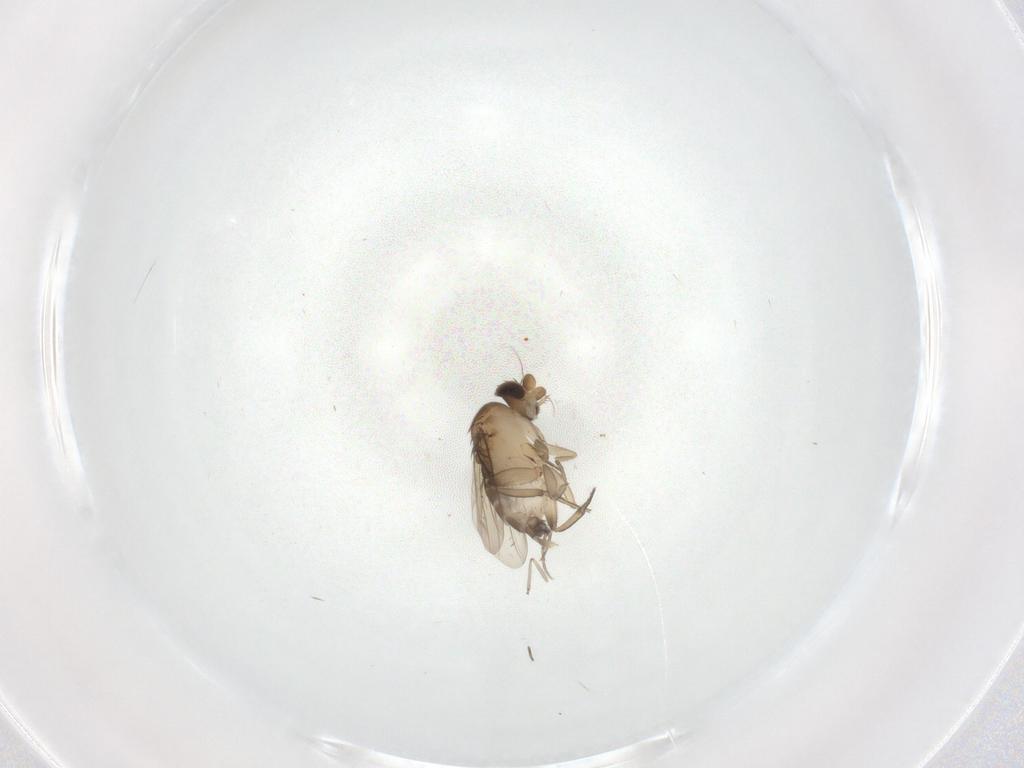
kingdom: Animalia
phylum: Arthropoda
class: Insecta
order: Diptera
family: Phoridae
